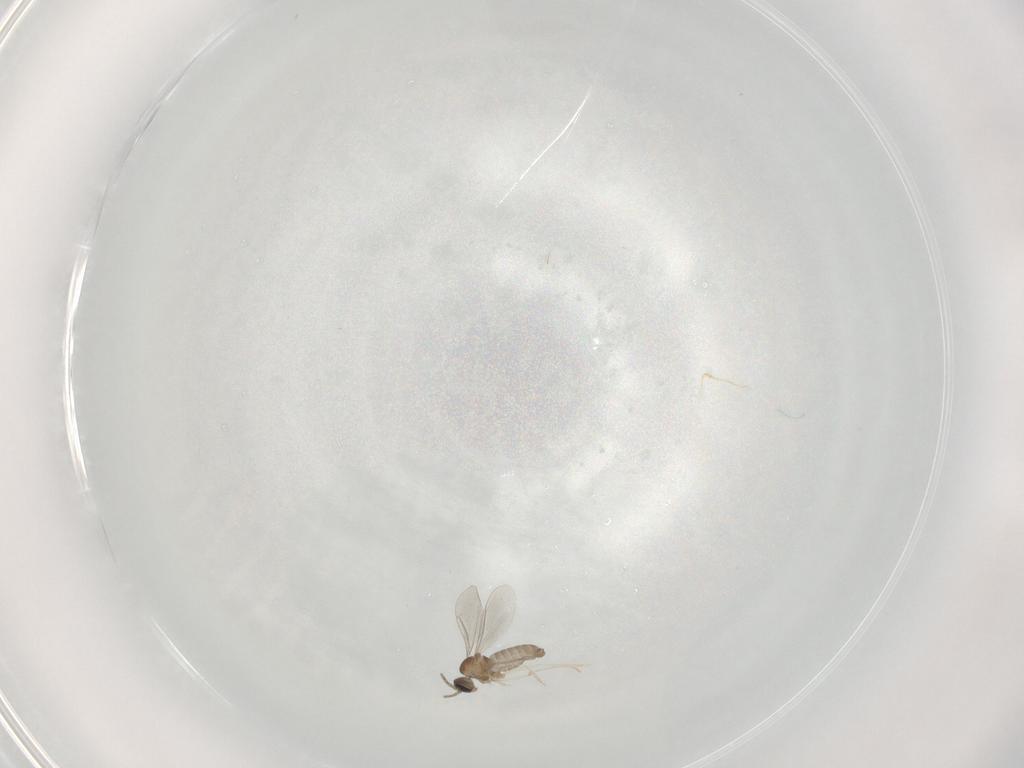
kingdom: Animalia
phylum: Arthropoda
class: Insecta
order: Diptera
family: Cecidomyiidae
